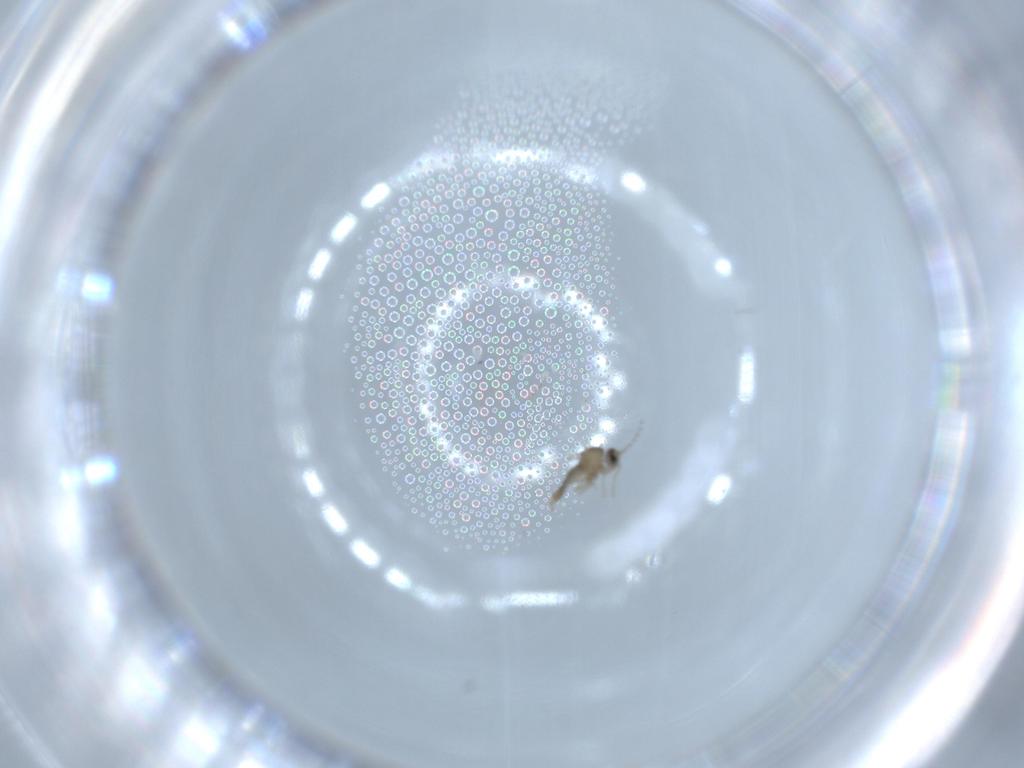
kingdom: Animalia
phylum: Arthropoda
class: Insecta
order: Diptera
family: Cecidomyiidae
